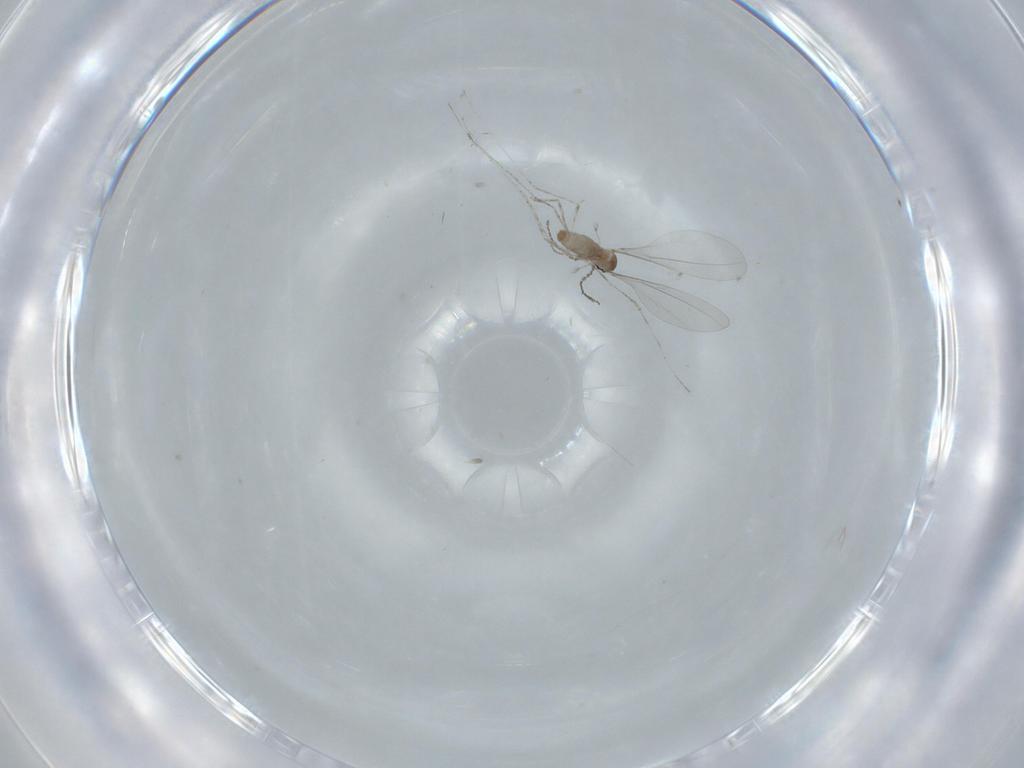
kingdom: Animalia
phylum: Arthropoda
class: Insecta
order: Diptera
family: Cecidomyiidae
